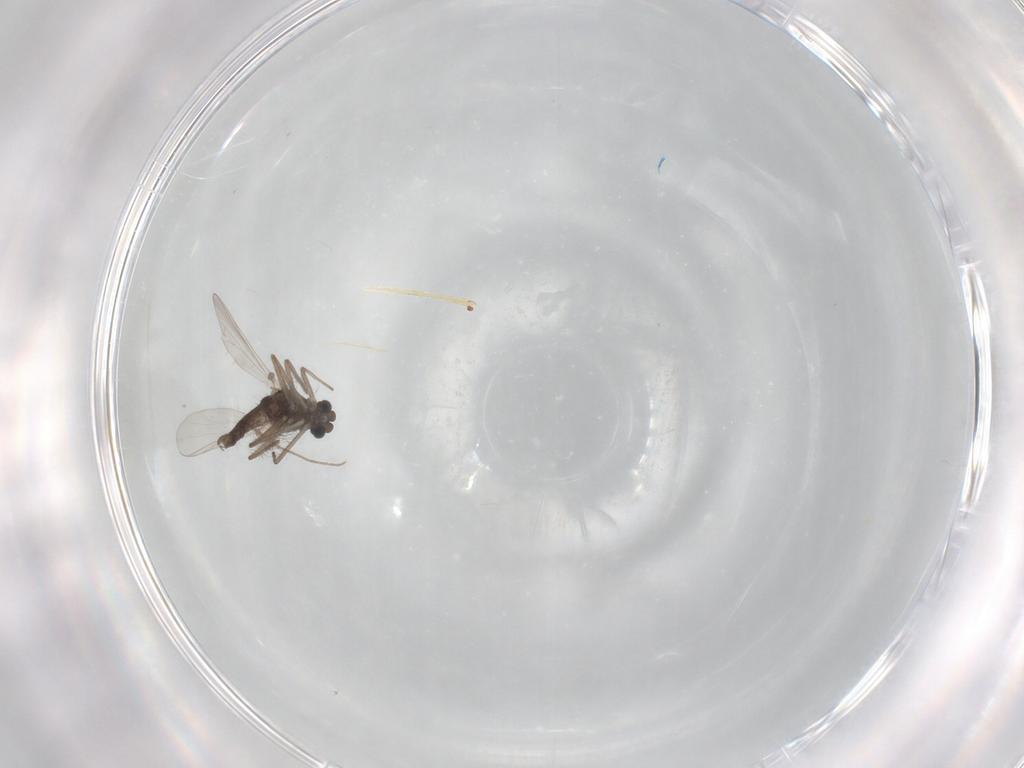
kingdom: Animalia
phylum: Arthropoda
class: Insecta
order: Diptera
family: Chironomidae
